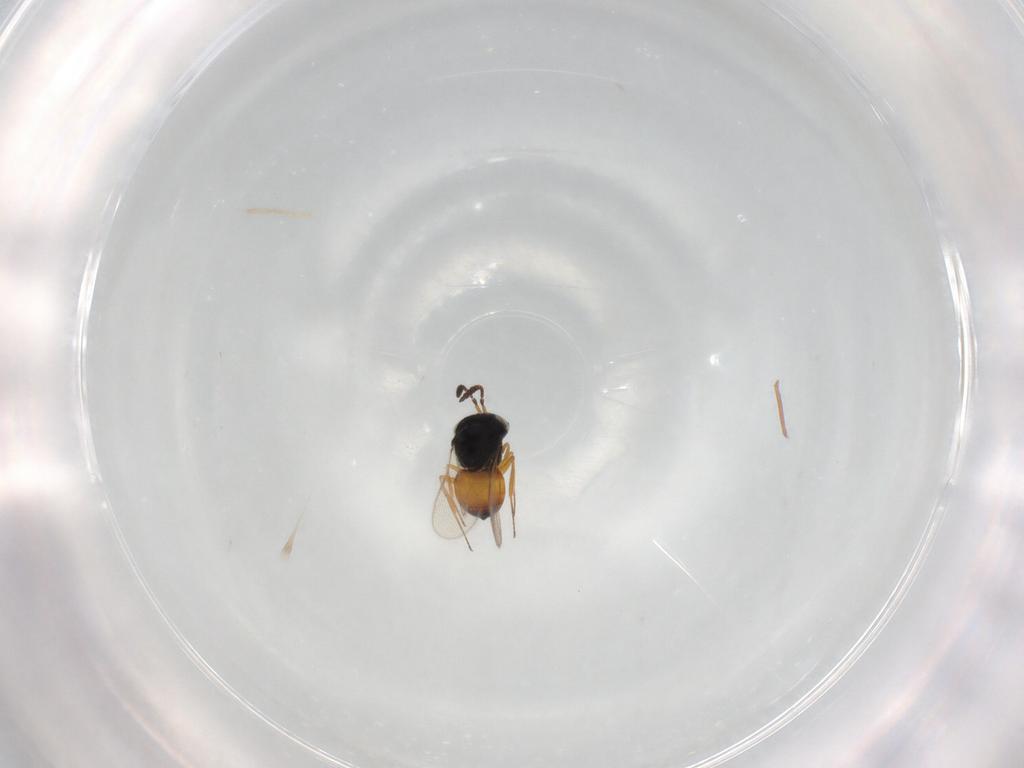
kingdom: Animalia
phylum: Arthropoda
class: Insecta
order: Hymenoptera
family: Scelionidae
